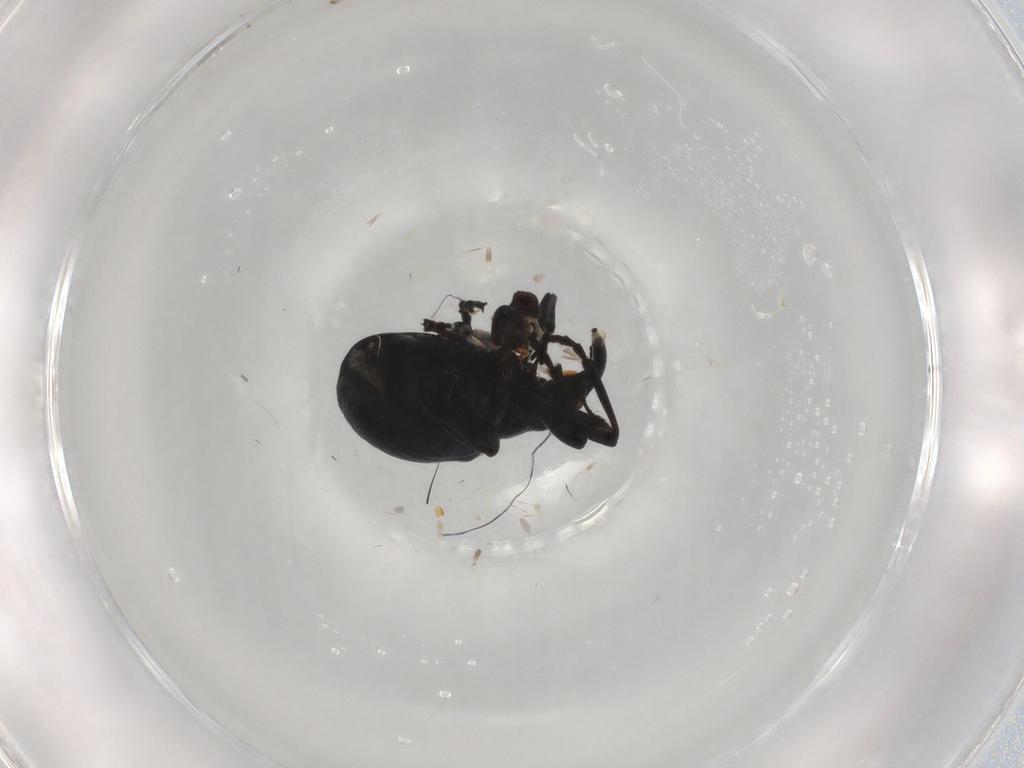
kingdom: Animalia
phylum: Arthropoda
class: Insecta
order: Coleoptera
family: Apionidae
